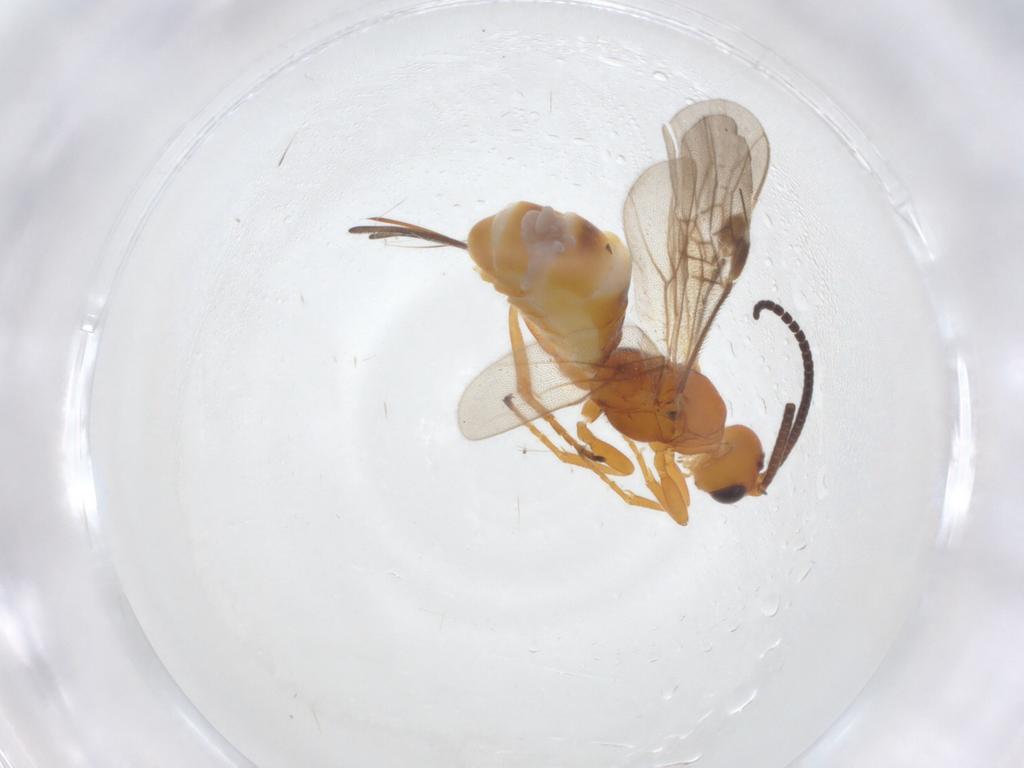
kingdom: Animalia
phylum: Arthropoda
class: Insecta
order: Hymenoptera
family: Braconidae
